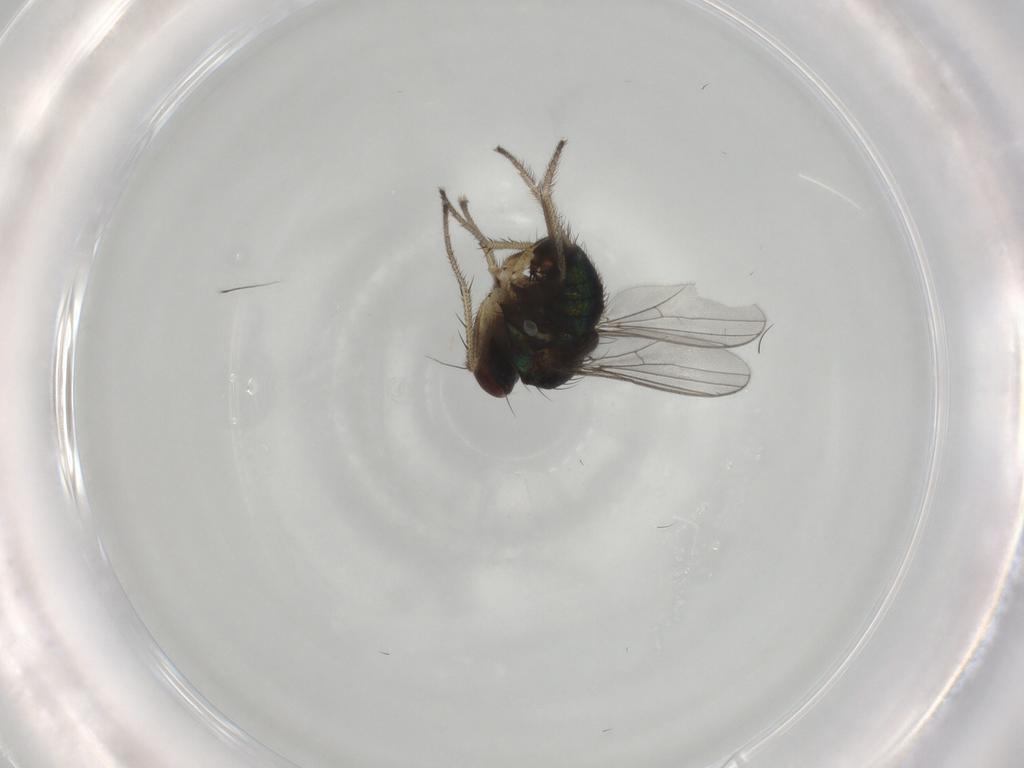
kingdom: Animalia
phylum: Arthropoda
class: Insecta
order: Diptera
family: Dolichopodidae
